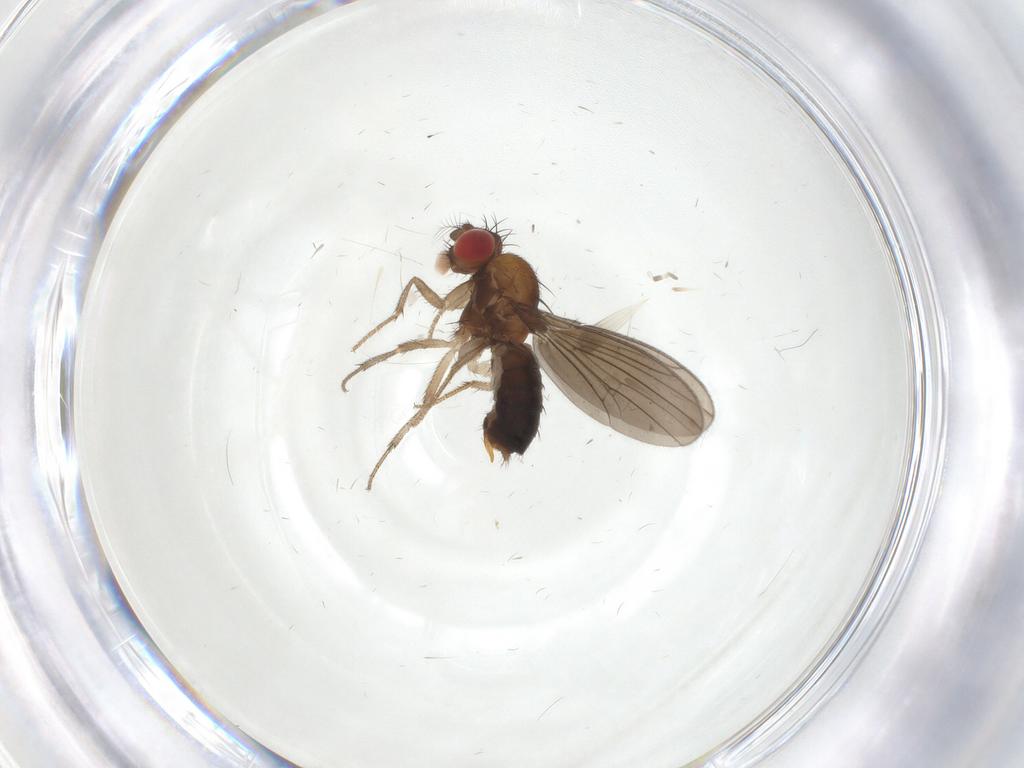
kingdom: Animalia
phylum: Arthropoda
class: Insecta
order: Diptera
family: Drosophilidae
